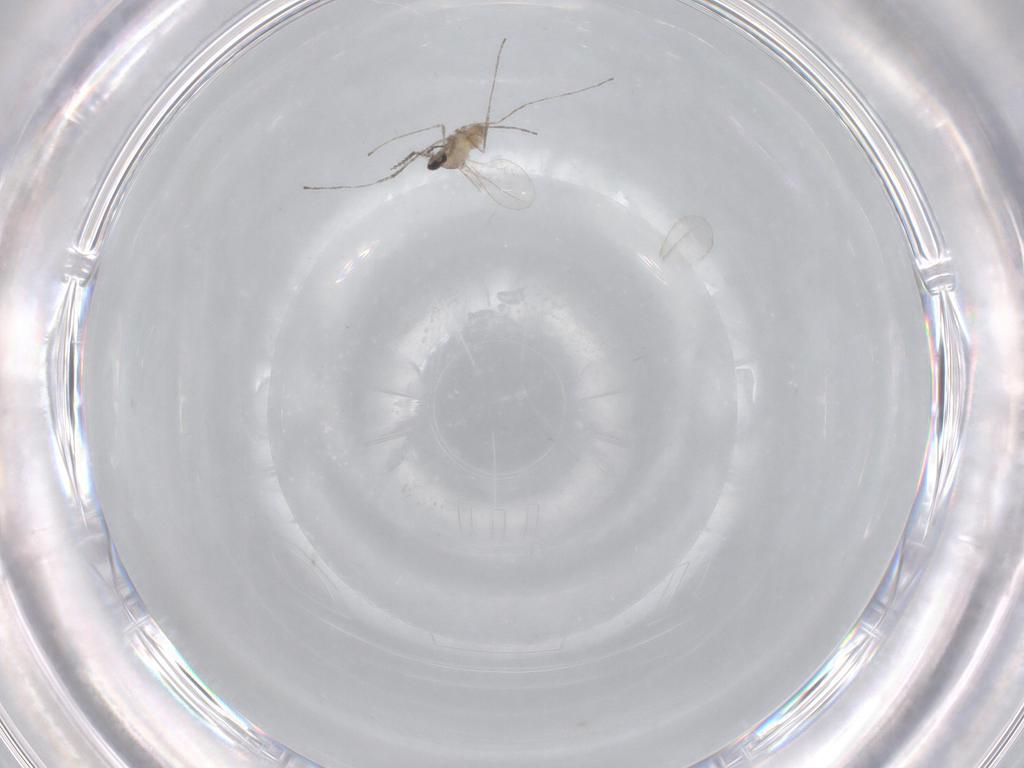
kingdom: Animalia
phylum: Arthropoda
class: Insecta
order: Diptera
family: Cecidomyiidae
